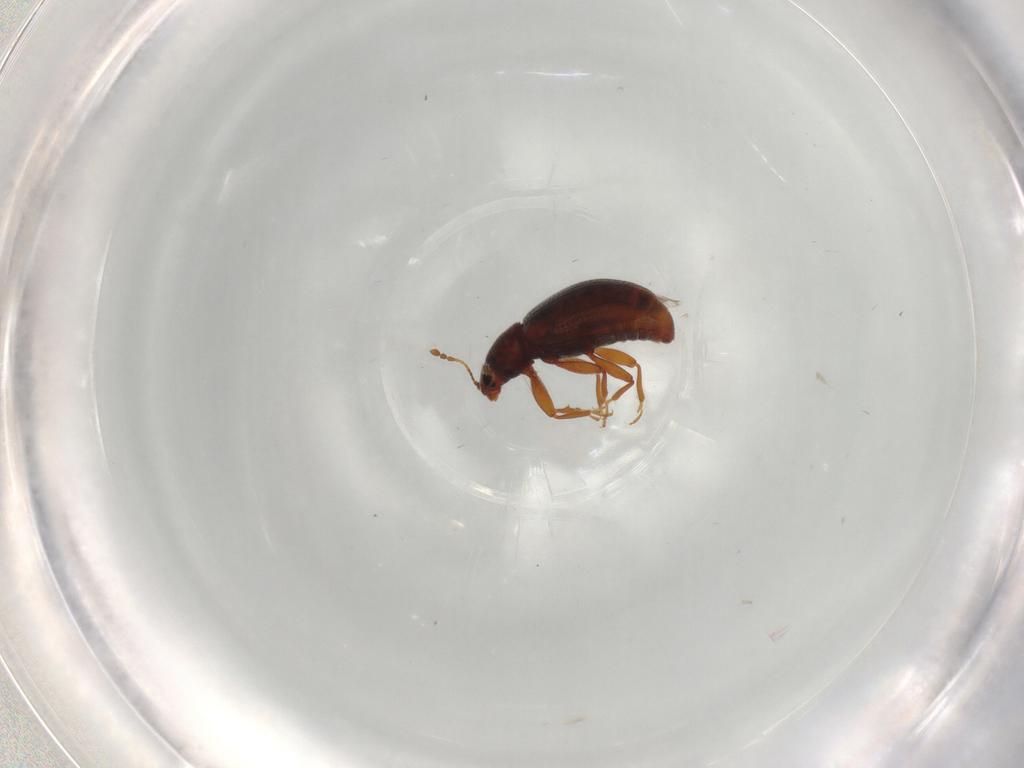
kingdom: Animalia
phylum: Arthropoda
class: Insecta
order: Coleoptera
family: Latridiidae
